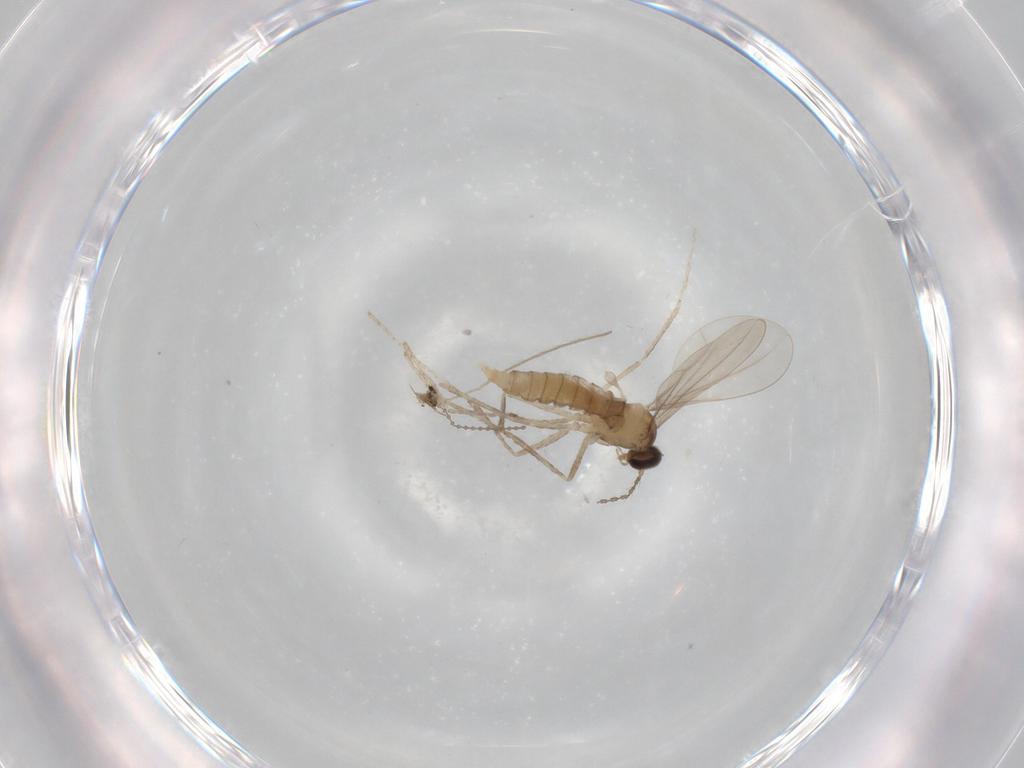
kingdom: Animalia
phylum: Arthropoda
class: Insecta
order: Diptera
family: Cecidomyiidae
